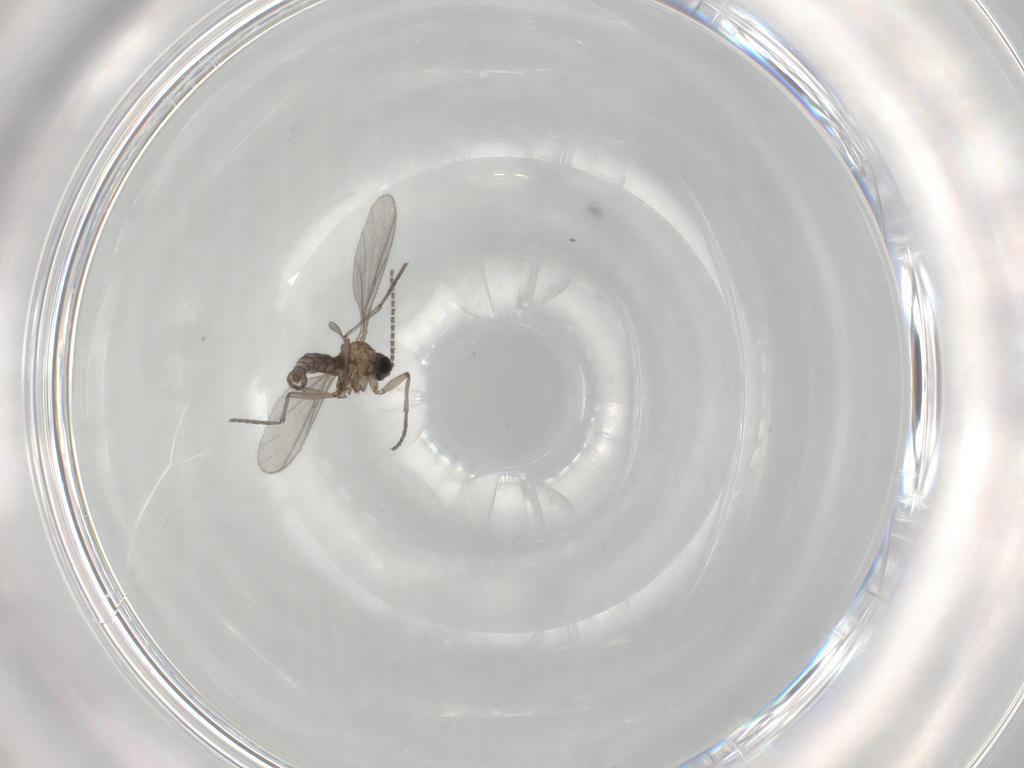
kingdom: Animalia
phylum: Arthropoda
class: Insecta
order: Diptera
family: Sciaridae
